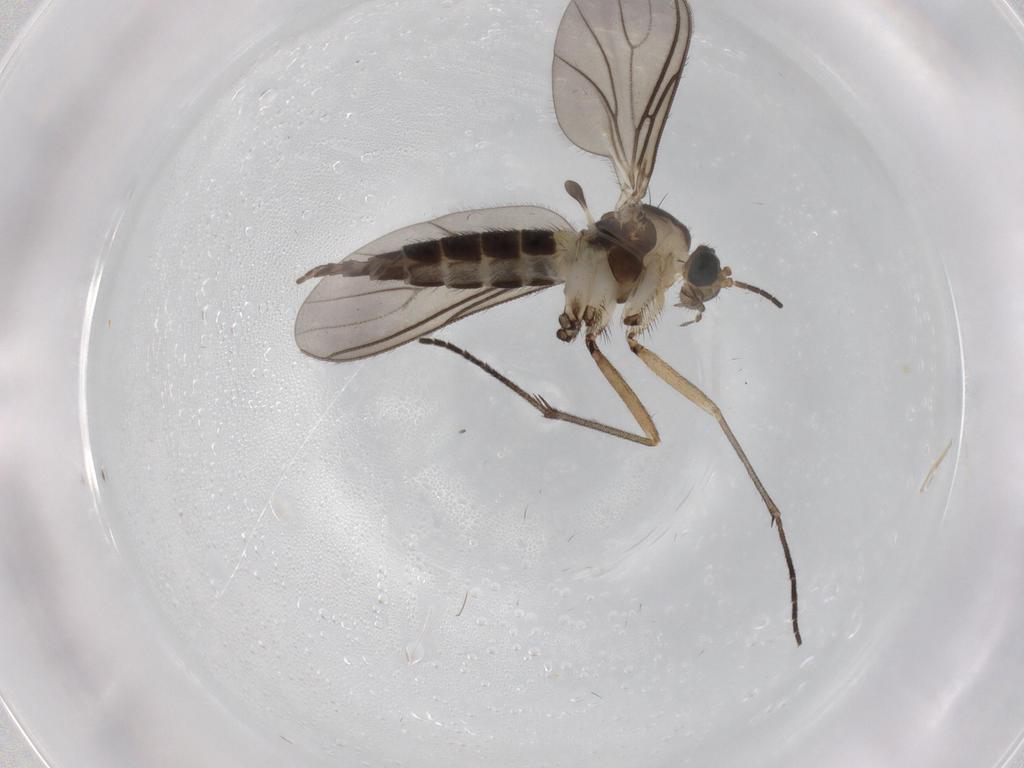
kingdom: Animalia
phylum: Arthropoda
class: Insecta
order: Diptera
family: Sciaridae
